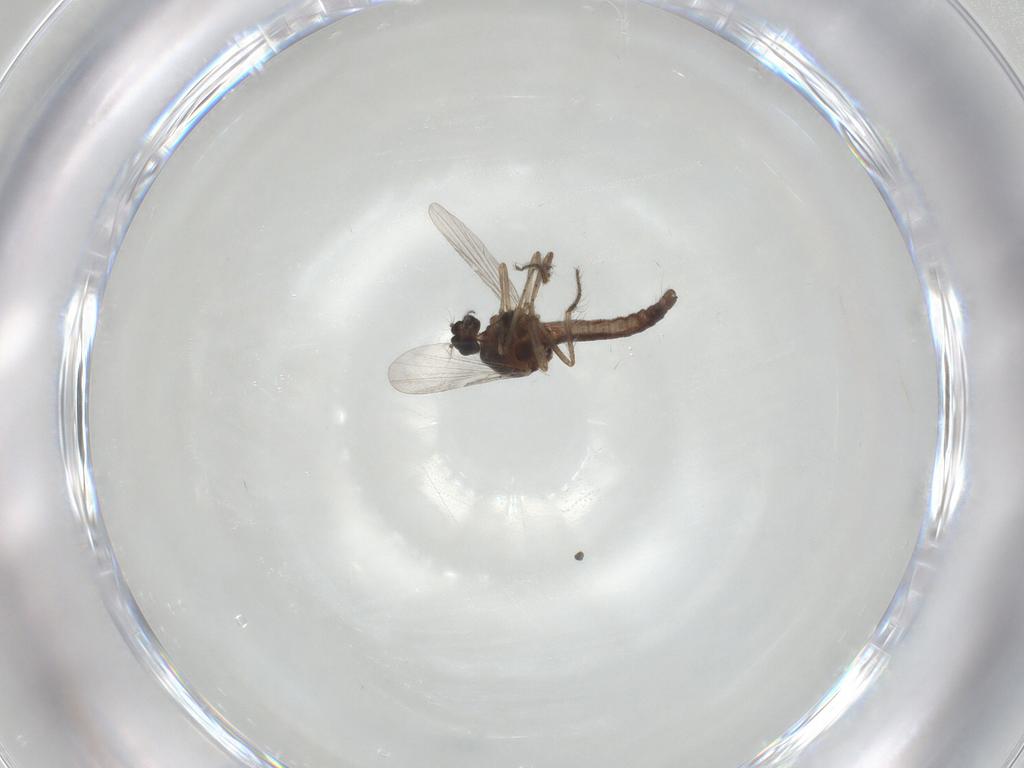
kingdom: Animalia
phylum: Arthropoda
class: Insecta
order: Diptera
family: Ceratopogonidae
